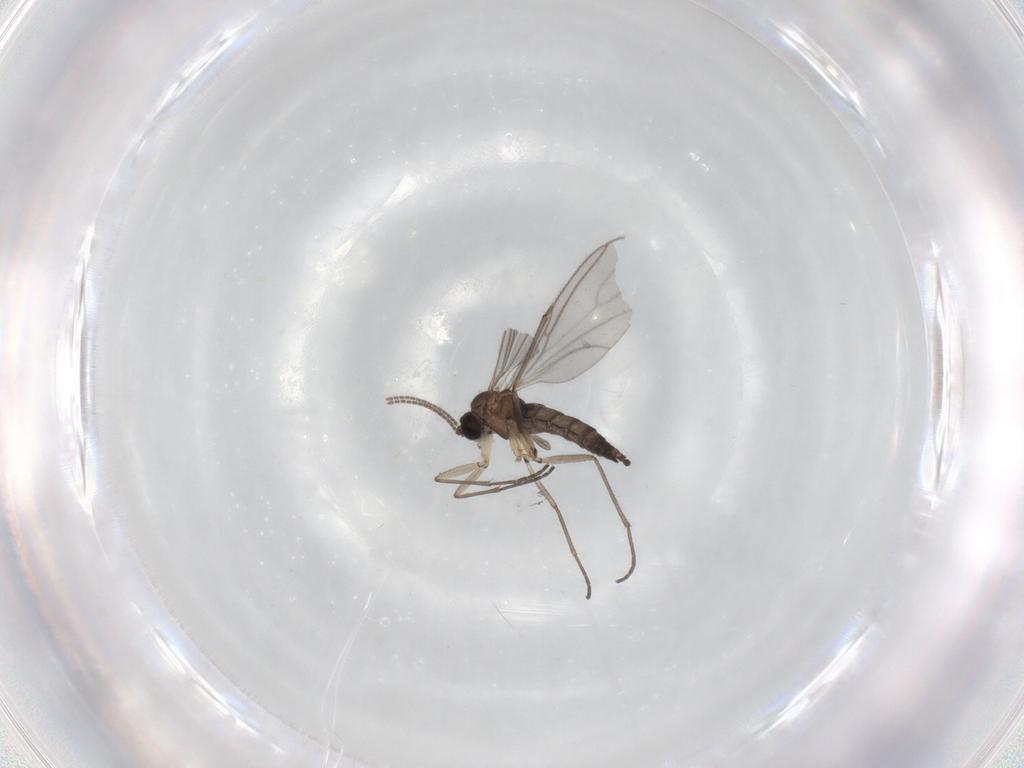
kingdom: Animalia
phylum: Arthropoda
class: Insecta
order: Diptera
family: Sciaridae
